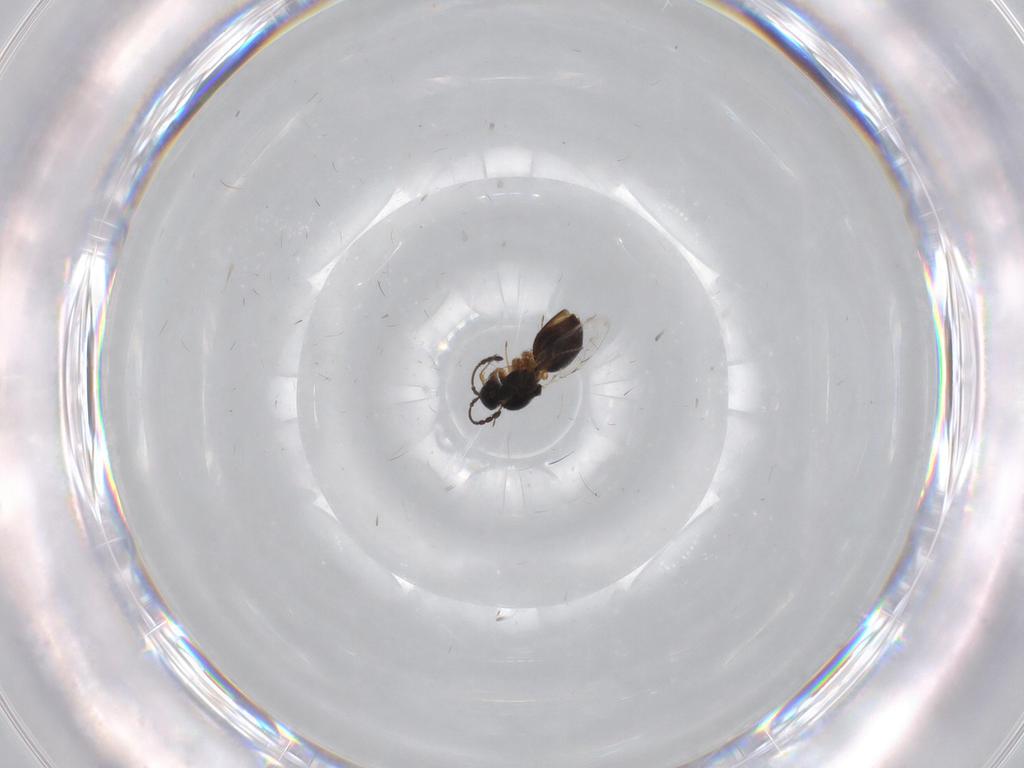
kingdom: Animalia
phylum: Arthropoda
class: Insecta
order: Hymenoptera
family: Figitidae
